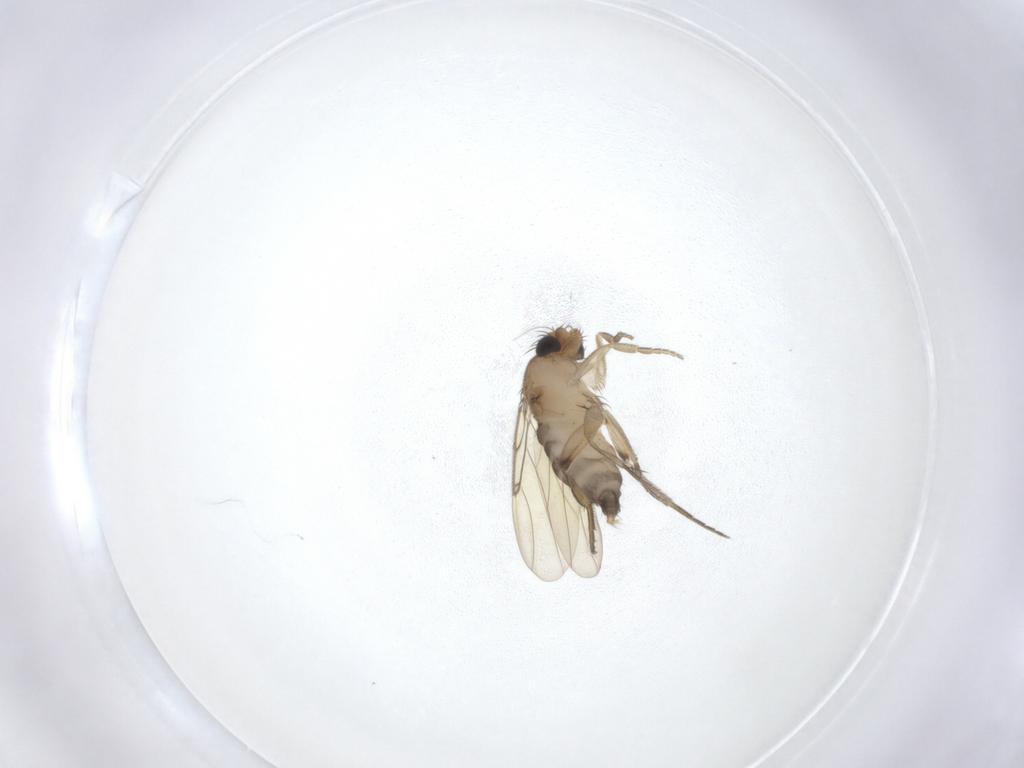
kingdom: Animalia
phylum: Arthropoda
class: Insecta
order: Diptera
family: Phoridae
